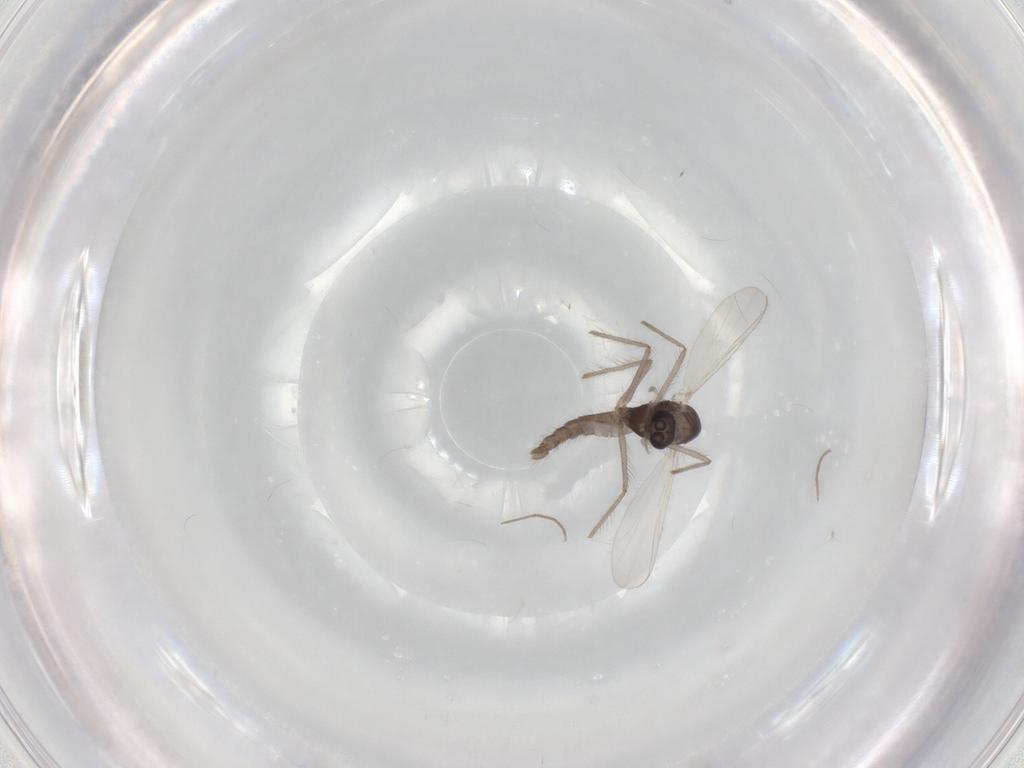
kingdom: Animalia
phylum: Arthropoda
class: Insecta
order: Diptera
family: Chironomidae
